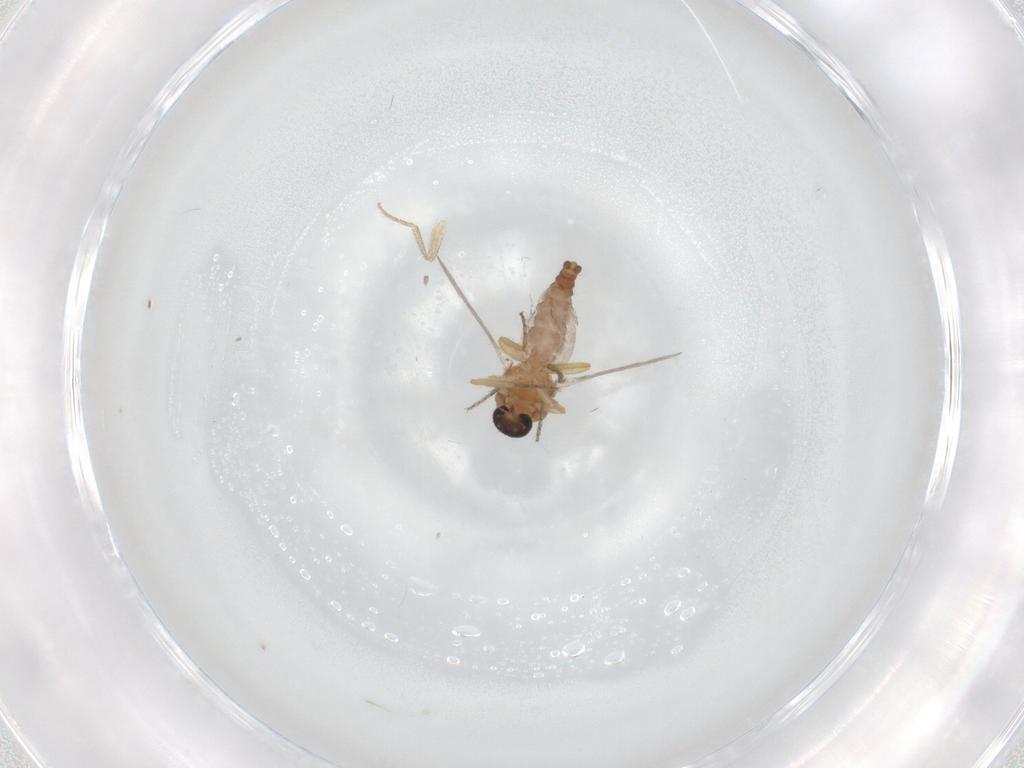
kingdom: Animalia
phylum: Arthropoda
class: Insecta
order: Diptera
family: Ceratopogonidae
